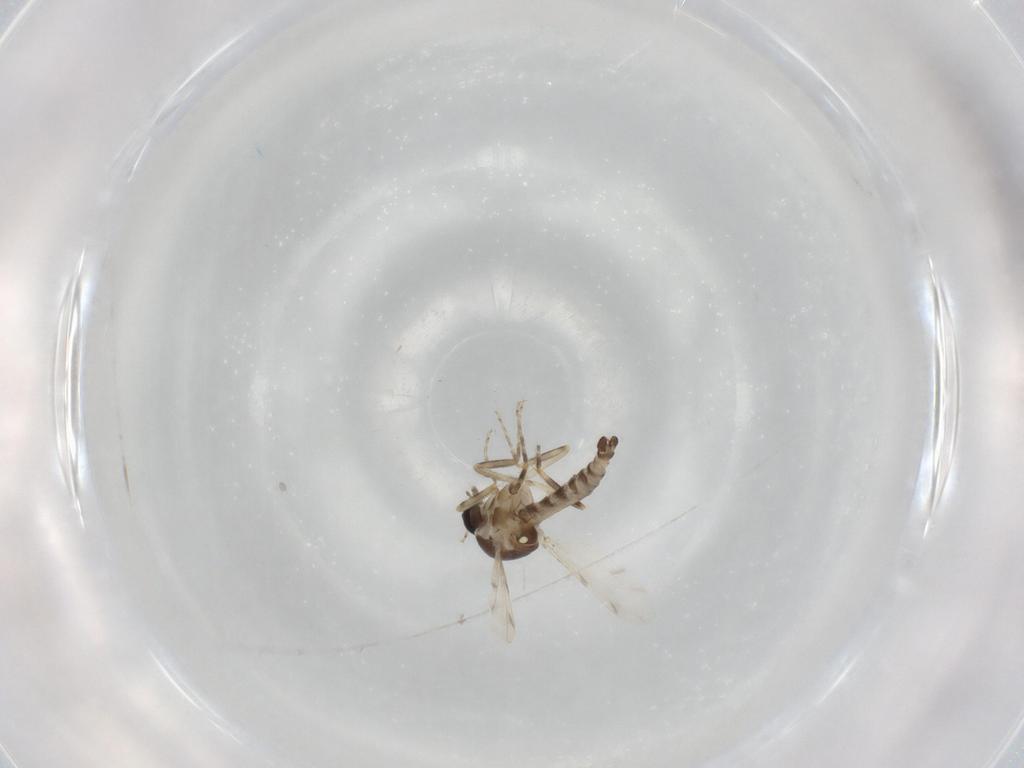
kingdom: Animalia
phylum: Arthropoda
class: Insecta
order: Diptera
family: Ceratopogonidae
